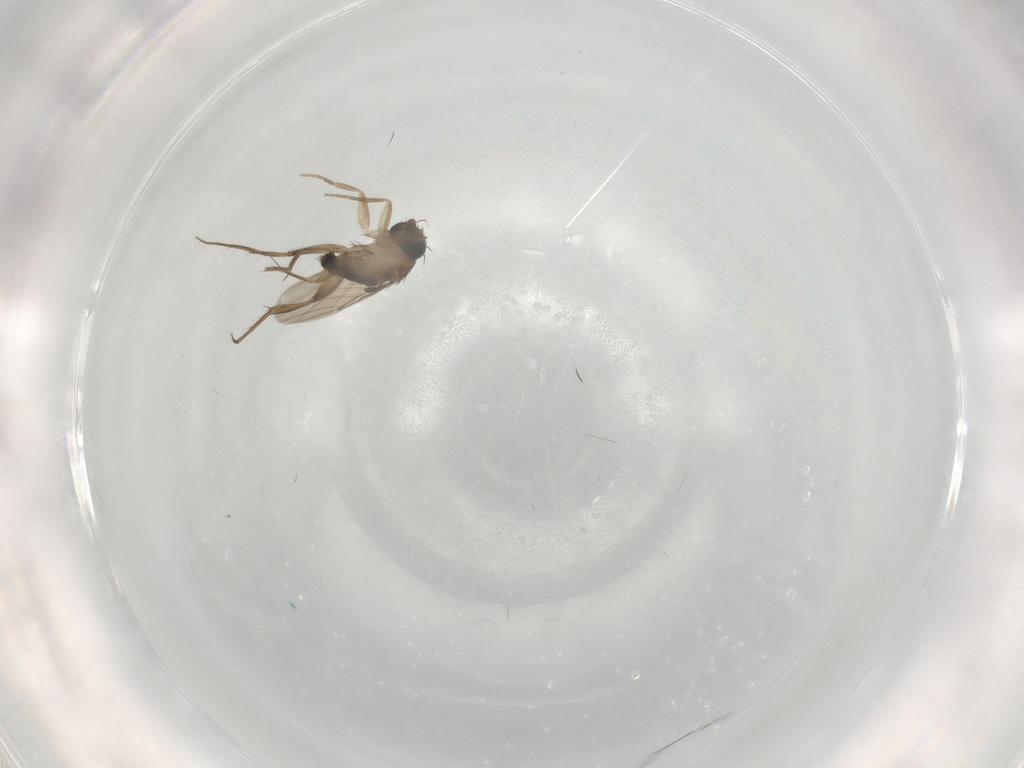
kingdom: Animalia
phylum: Arthropoda
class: Insecta
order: Diptera
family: Phoridae
